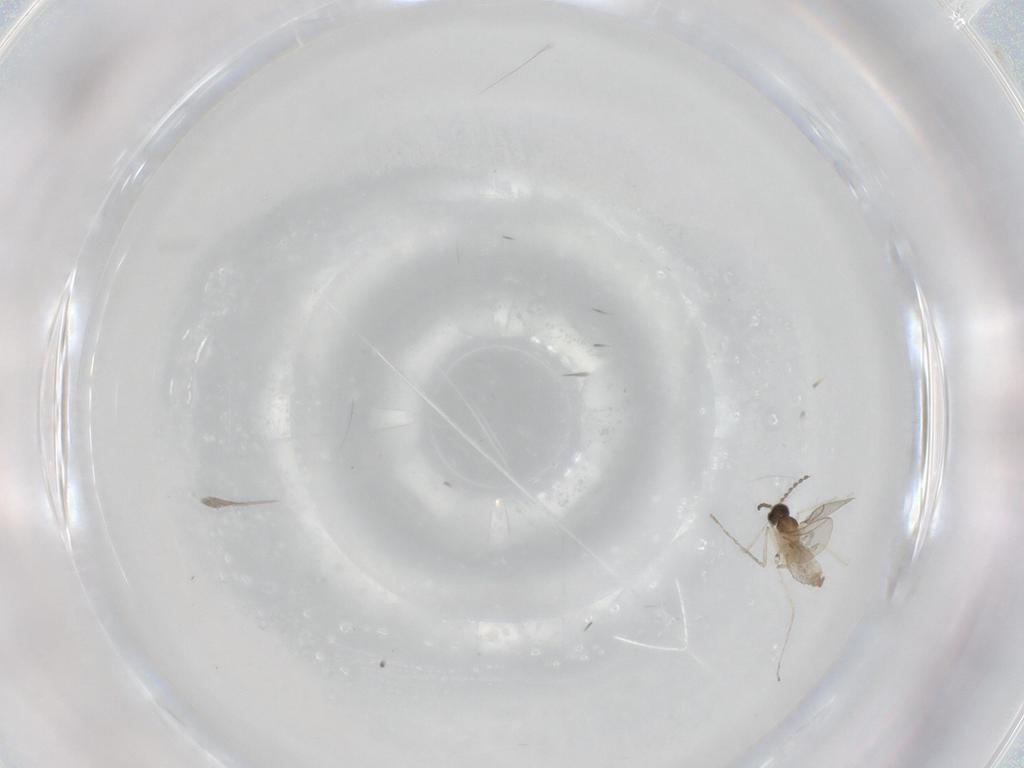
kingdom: Animalia
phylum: Arthropoda
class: Insecta
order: Diptera
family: Cecidomyiidae
